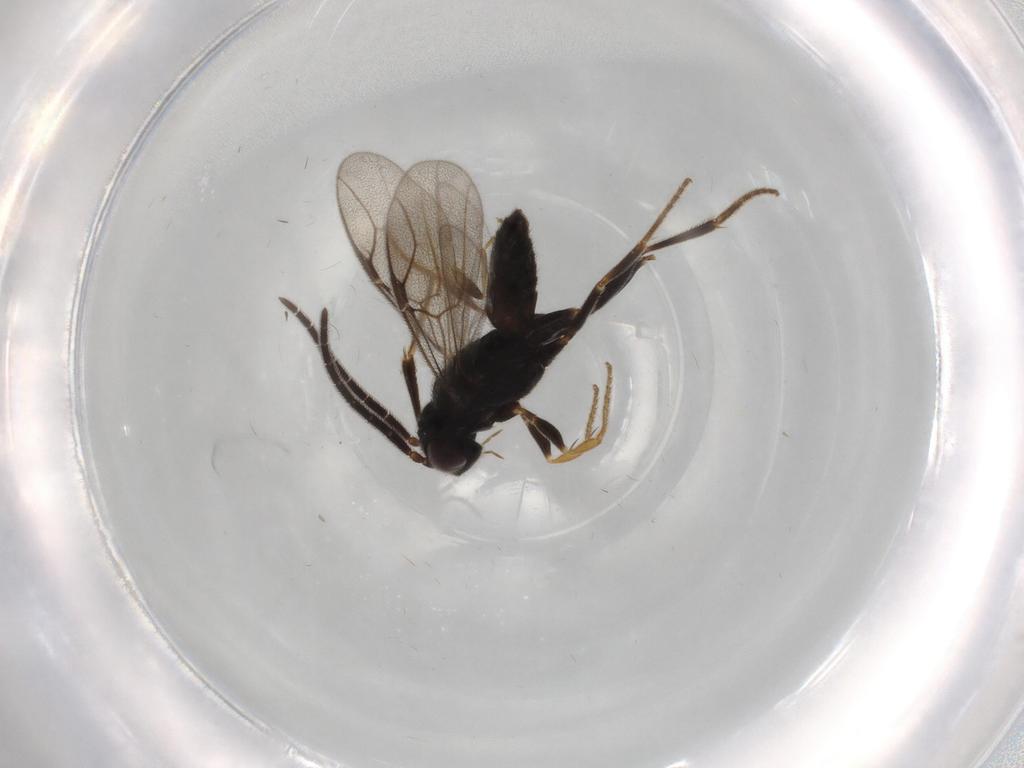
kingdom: Animalia
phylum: Arthropoda
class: Insecta
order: Hymenoptera
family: Dryinidae
